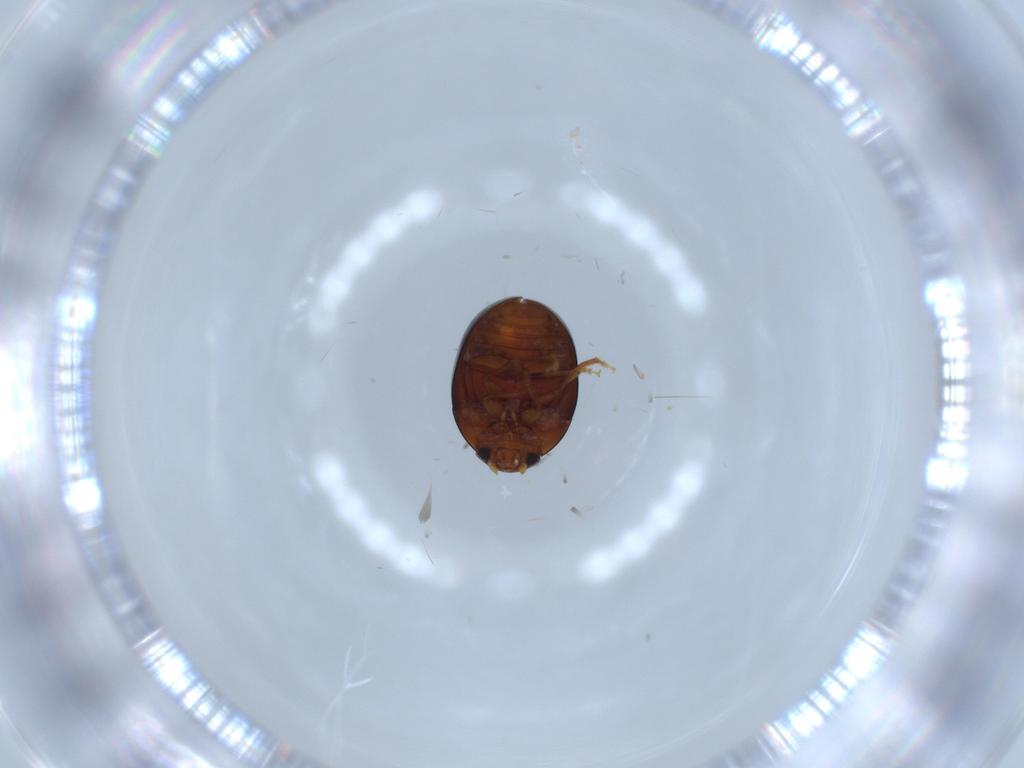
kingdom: Animalia
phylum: Arthropoda
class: Insecta
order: Coleoptera
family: Phalacridae
